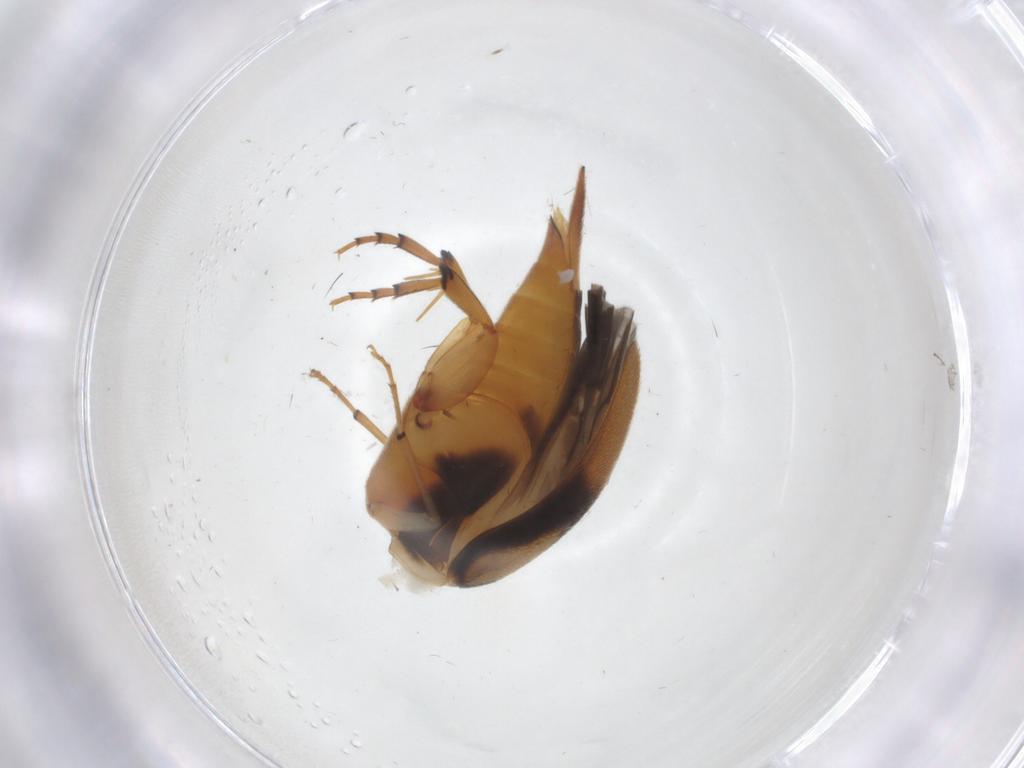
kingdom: Animalia
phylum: Arthropoda
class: Insecta
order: Coleoptera
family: Mordellidae
